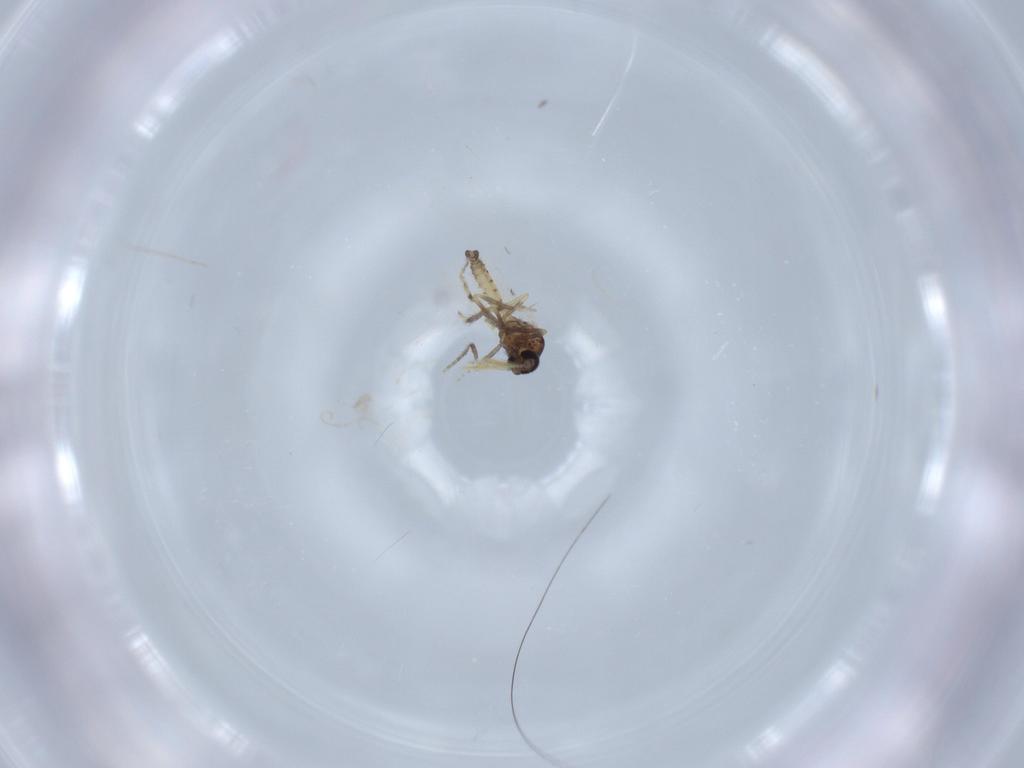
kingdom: Animalia
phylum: Arthropoda
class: Insecta
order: Diptera
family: Ceratopogonidae
